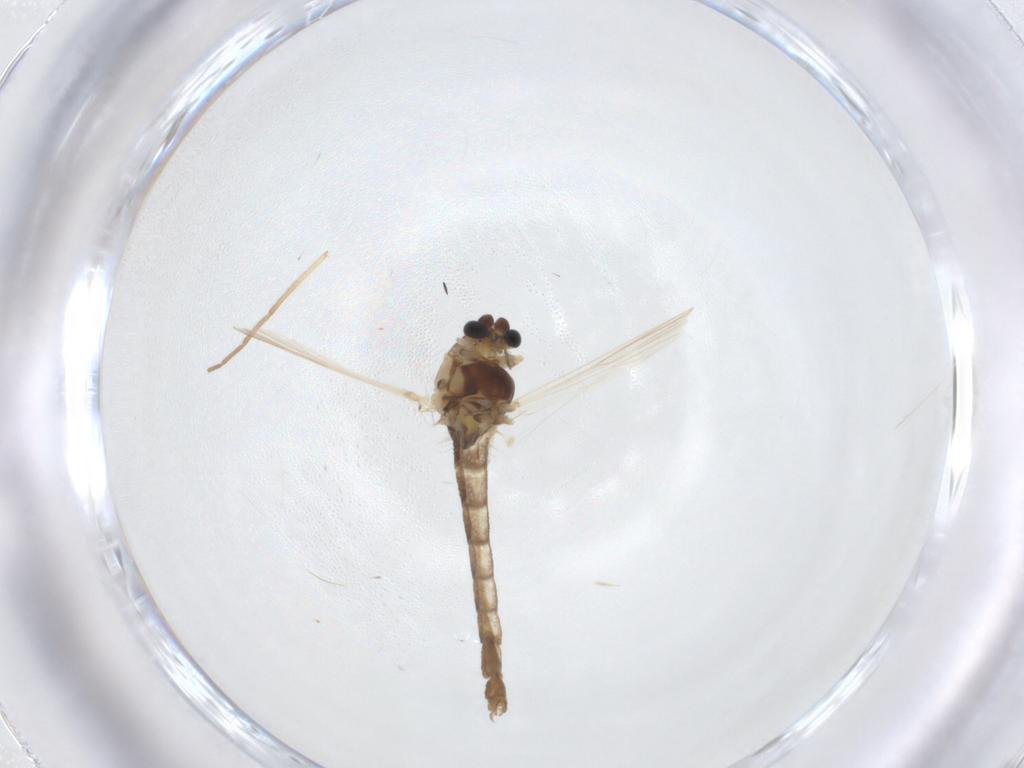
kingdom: Animalia
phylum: Arthropoda
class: Insecta
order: Diptera
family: Chironomidae
